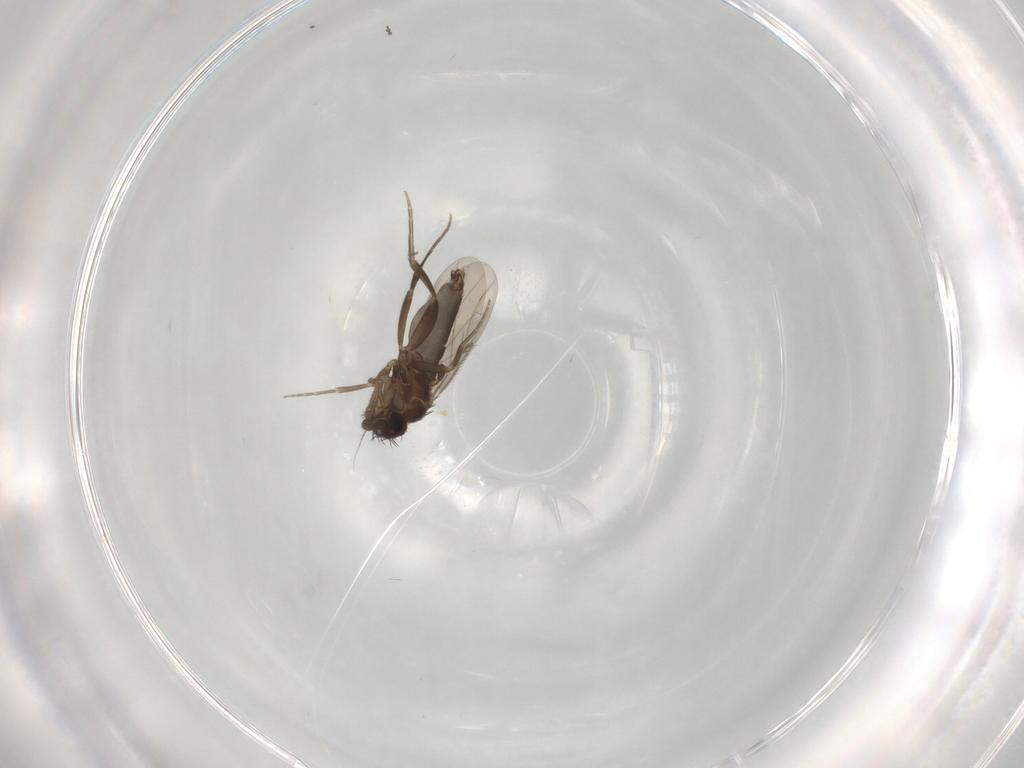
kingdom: Animalia
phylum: Arthropoda
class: Insecta
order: Diptera
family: Cecidomyiidae
